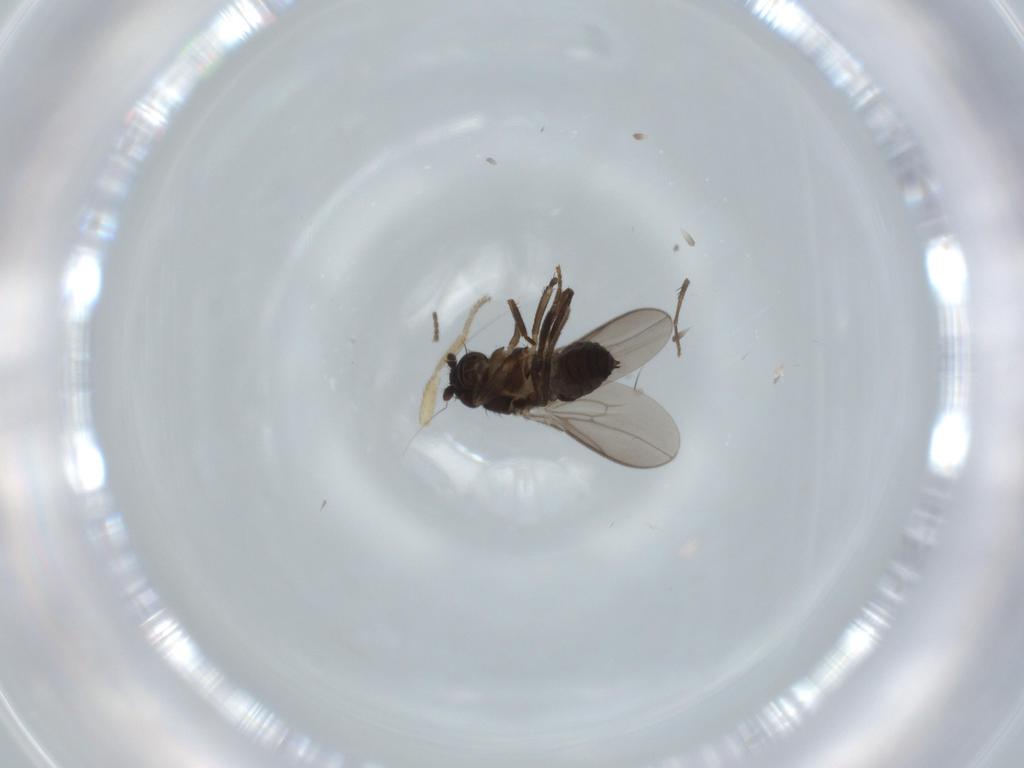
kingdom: Animalia
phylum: Arthropoda
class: Insecta
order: Diptera
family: Sphaeroceridae
